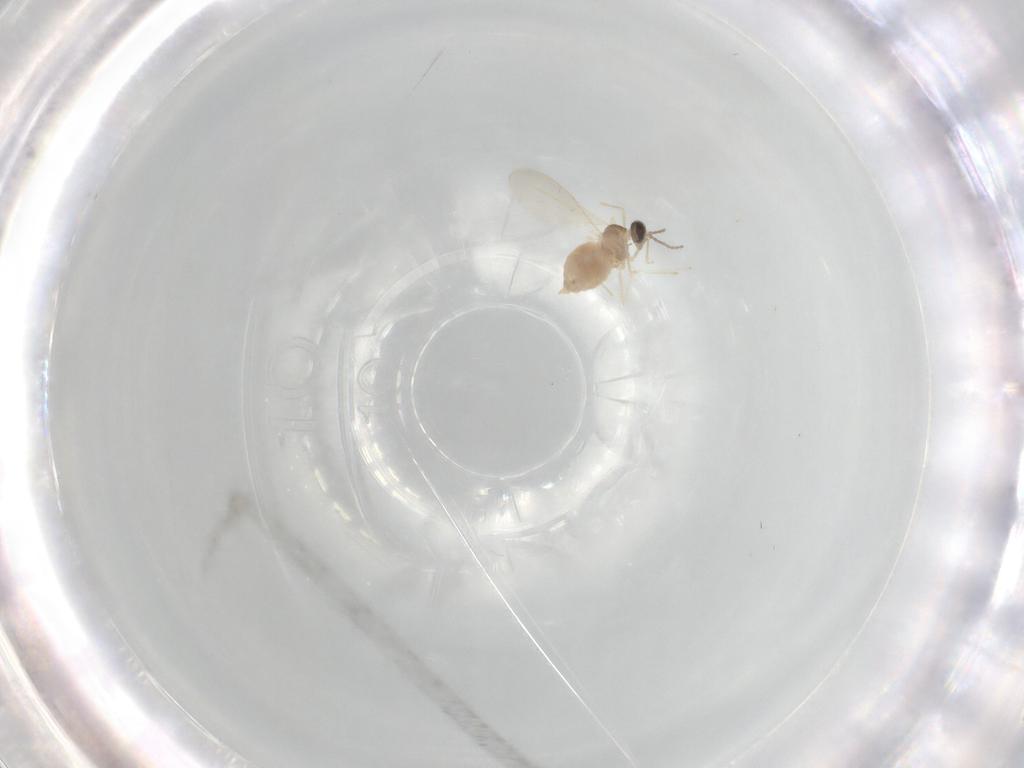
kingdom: Animalia
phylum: Arthropoda
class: Insecta
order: Diptera
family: Cecidomyiidae
